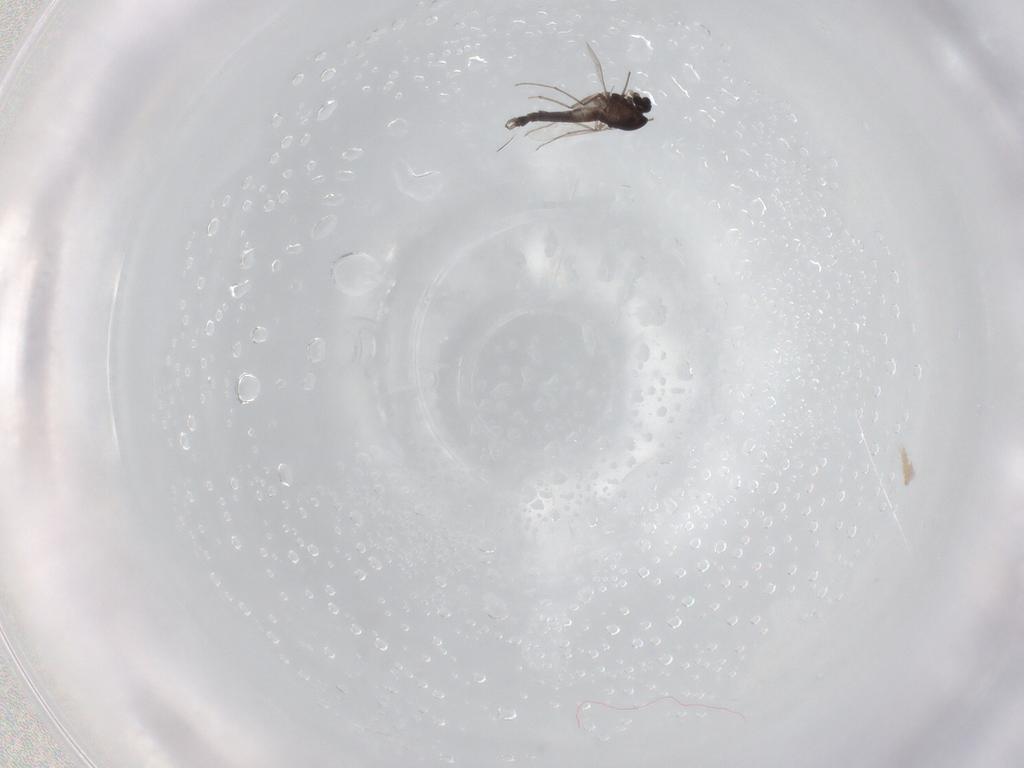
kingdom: Animalia
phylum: Arthropoda
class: Insecta
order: Diptera
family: Chironomidae
